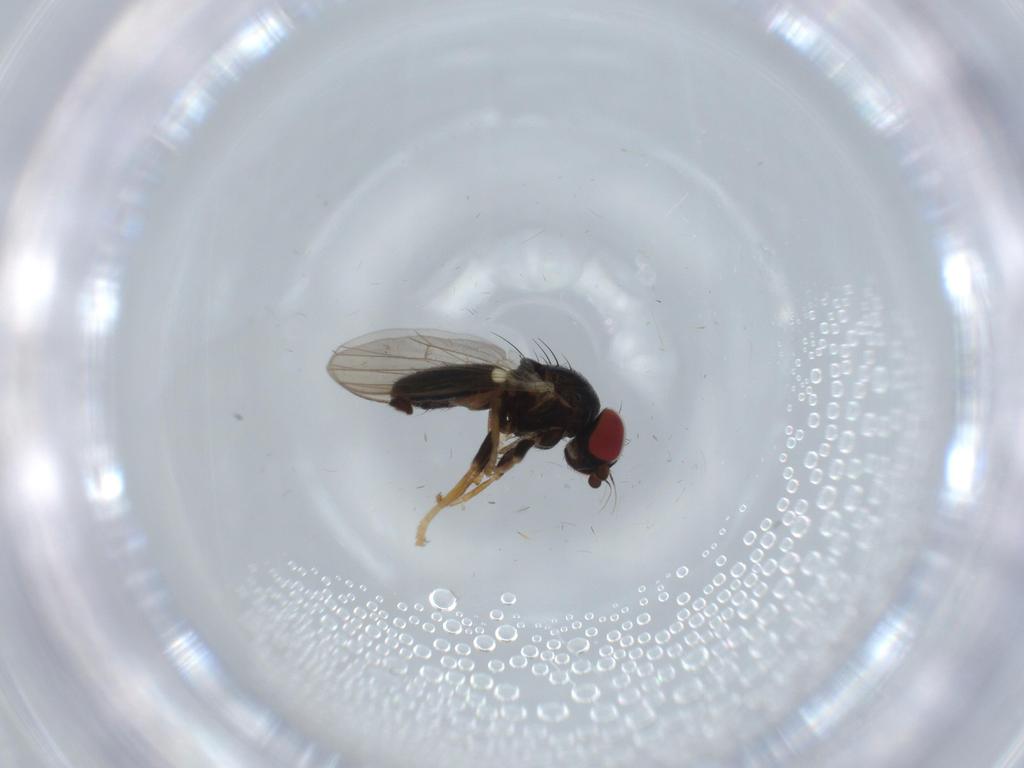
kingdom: Animalia
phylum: Arthropoda
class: Insecta
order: Diptera
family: Chamaemyiidae
